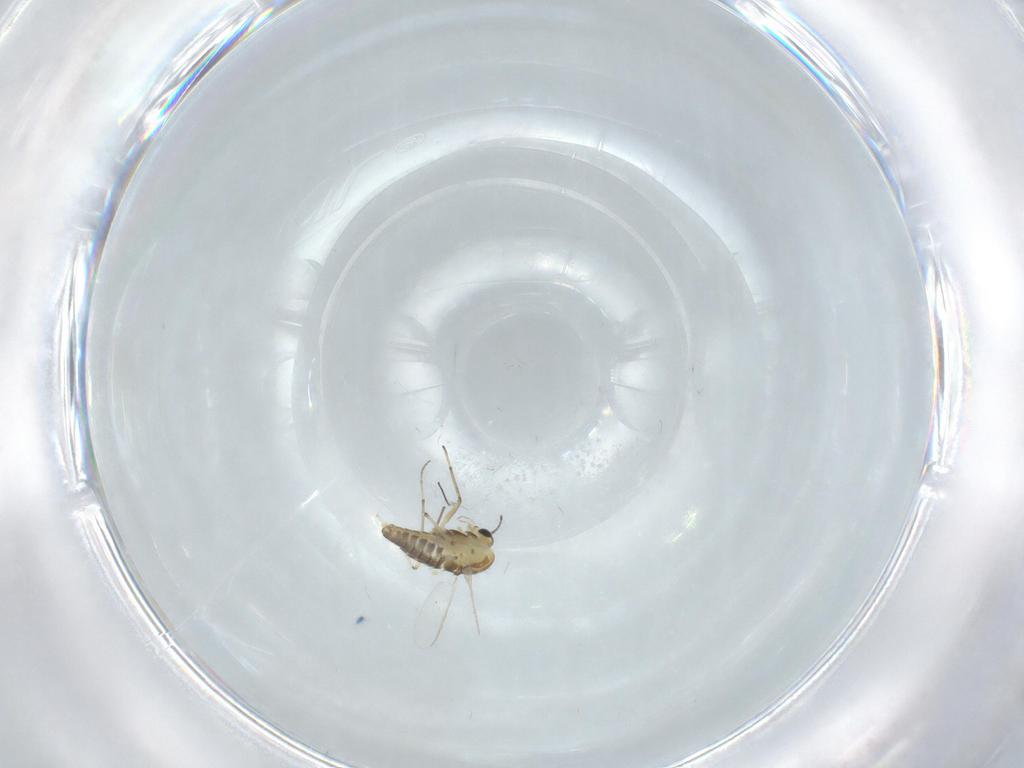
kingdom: Animalia
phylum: Arthropoda
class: Insecta
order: Diptera
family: Chironomidae
